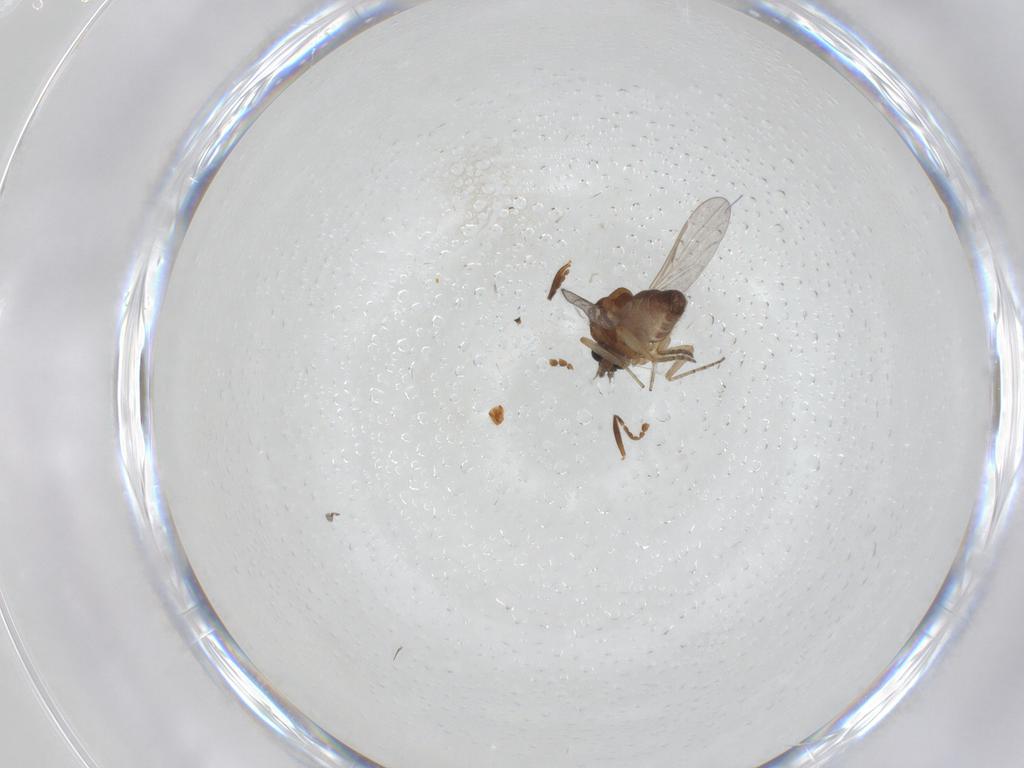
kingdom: Animalia
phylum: Arthropoda
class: Insecta
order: Diptera
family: Ceratopogonidae
